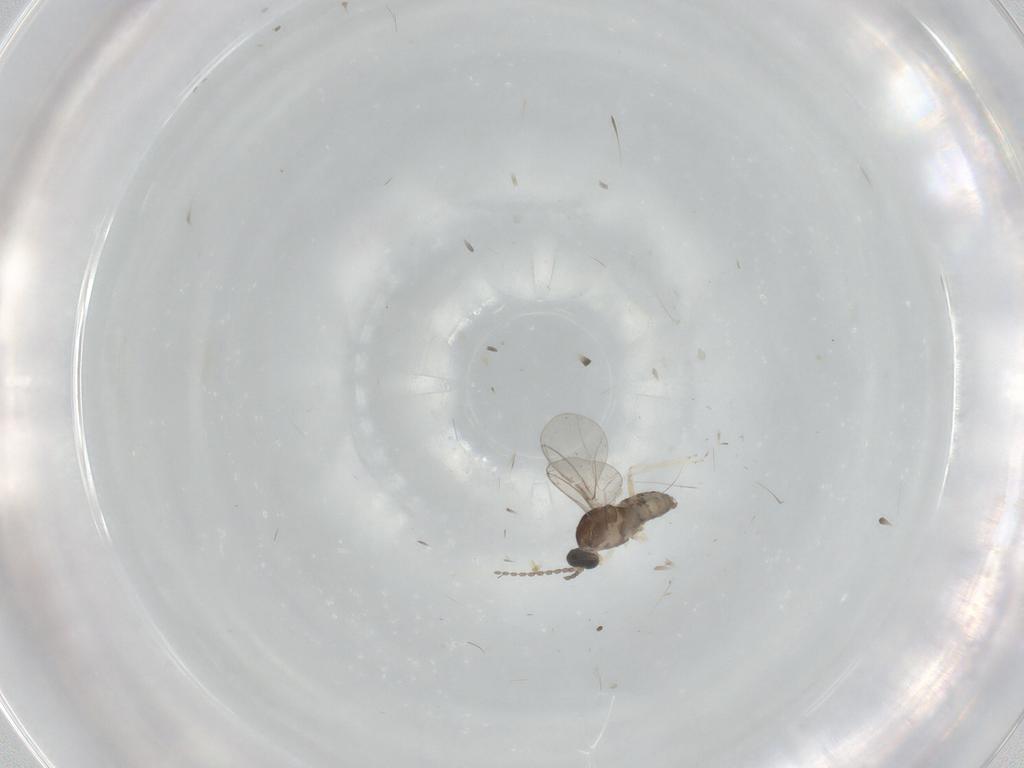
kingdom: Animalia
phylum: Arthropoda
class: Insecta
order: Diptera
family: Cecidomyiidae
